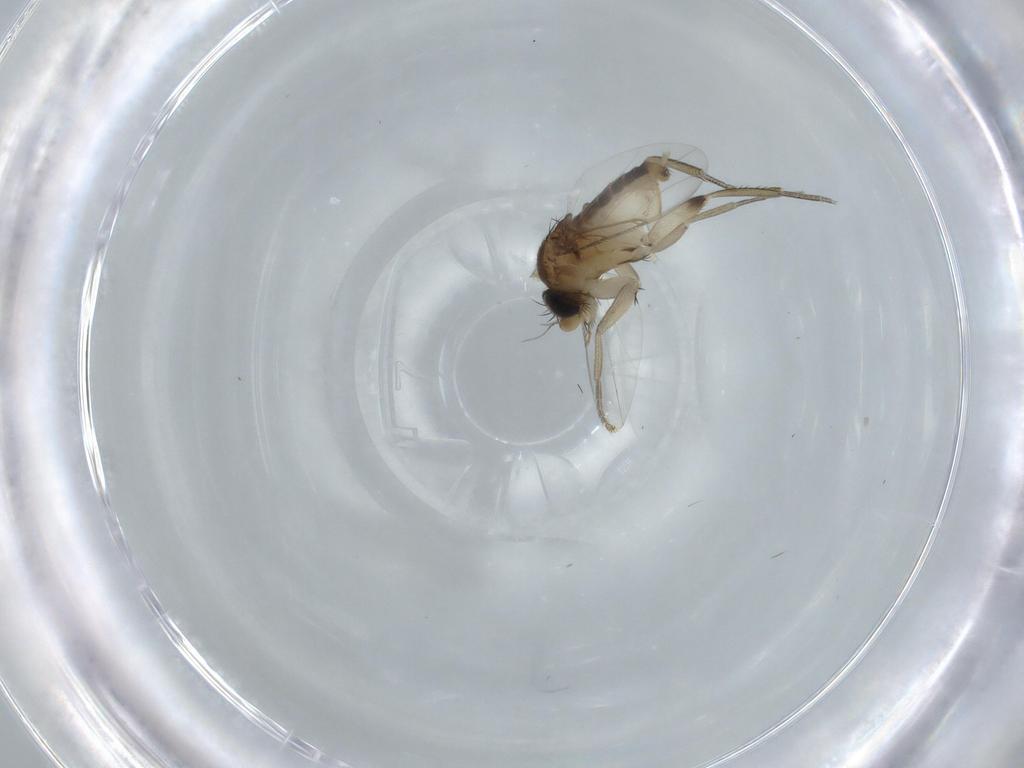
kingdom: Animalia
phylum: Arthropoda
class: Insecta
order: Diptera
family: Phoridae
